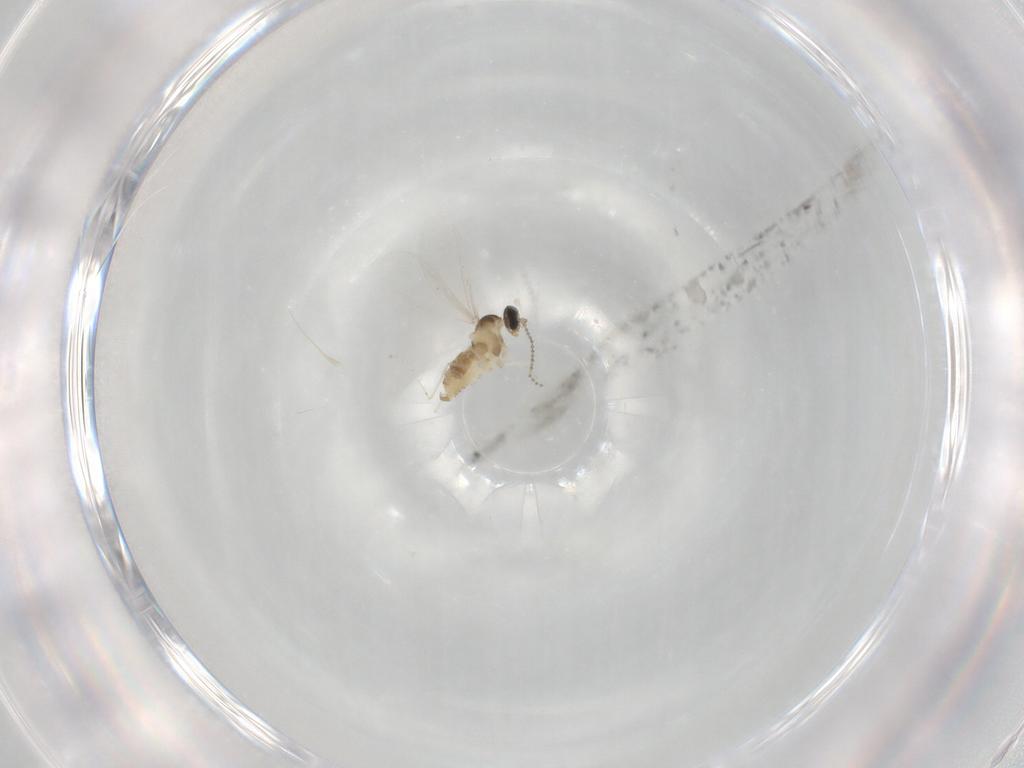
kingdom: Animalia
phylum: Arthropoda
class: Insecta
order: Diptera
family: Cecidomyiidae
